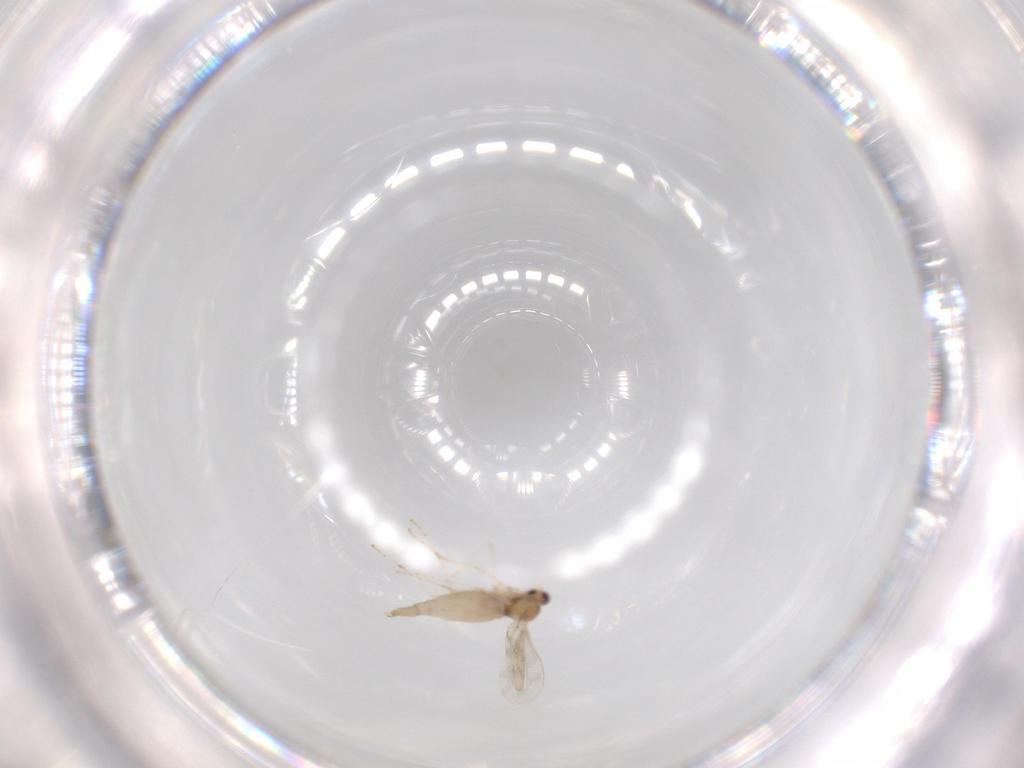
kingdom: Animalia
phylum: Arthropoda
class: Insecta
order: Diptera
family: Cecidomyiidae
